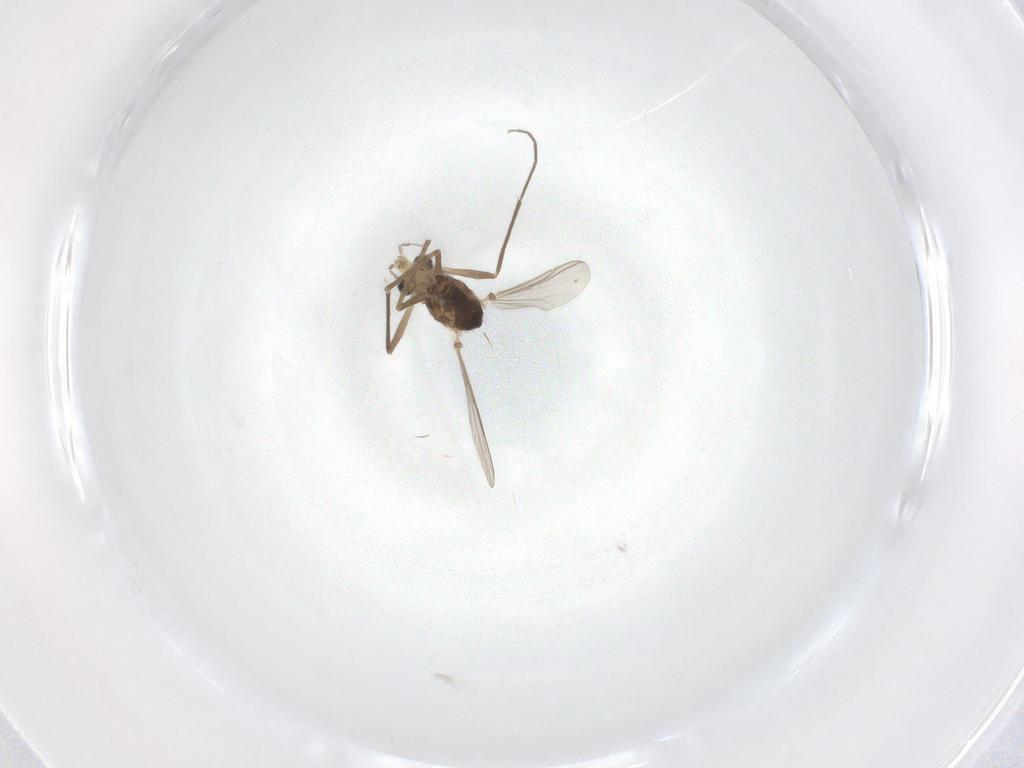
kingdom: Animalia
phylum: Arthropoda
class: Insecta
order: Diptera
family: Chironomidae
